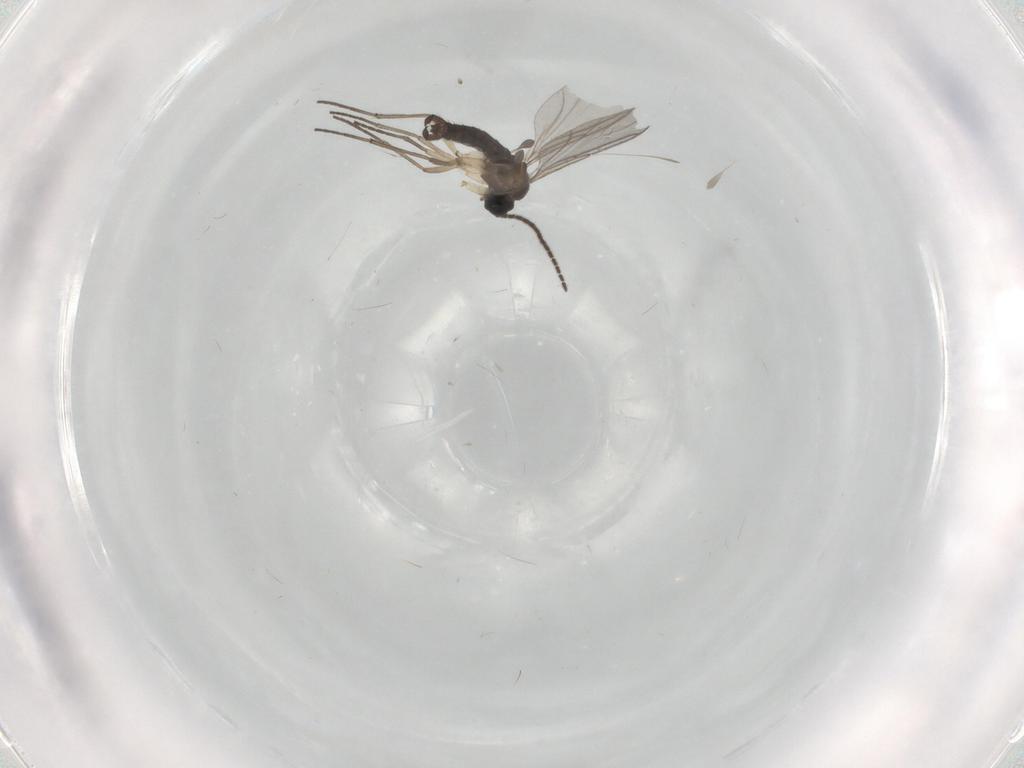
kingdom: Animalia
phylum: Arthropoda
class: Insecta
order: Diptera
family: Sciaridae
